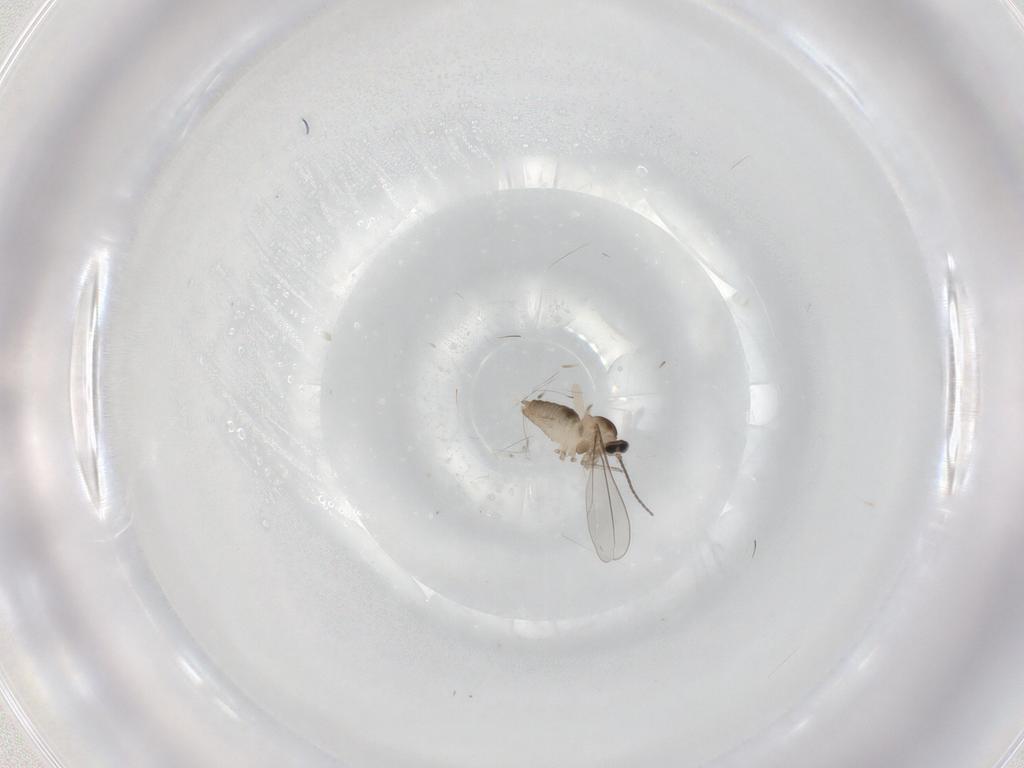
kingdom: Animalia
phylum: Arthropoda
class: Insecta
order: Diptera
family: Cecidomyiidae
